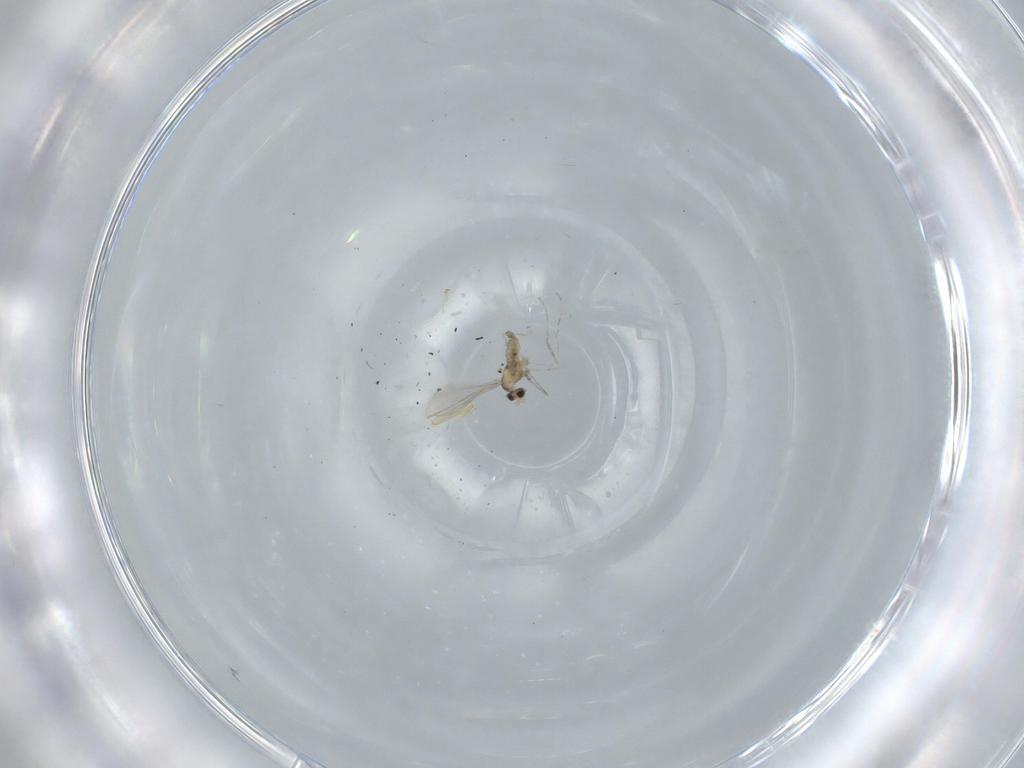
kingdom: Animalia
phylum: Arthropoda
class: Insecta
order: Diptera
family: Cecidomyiidae
